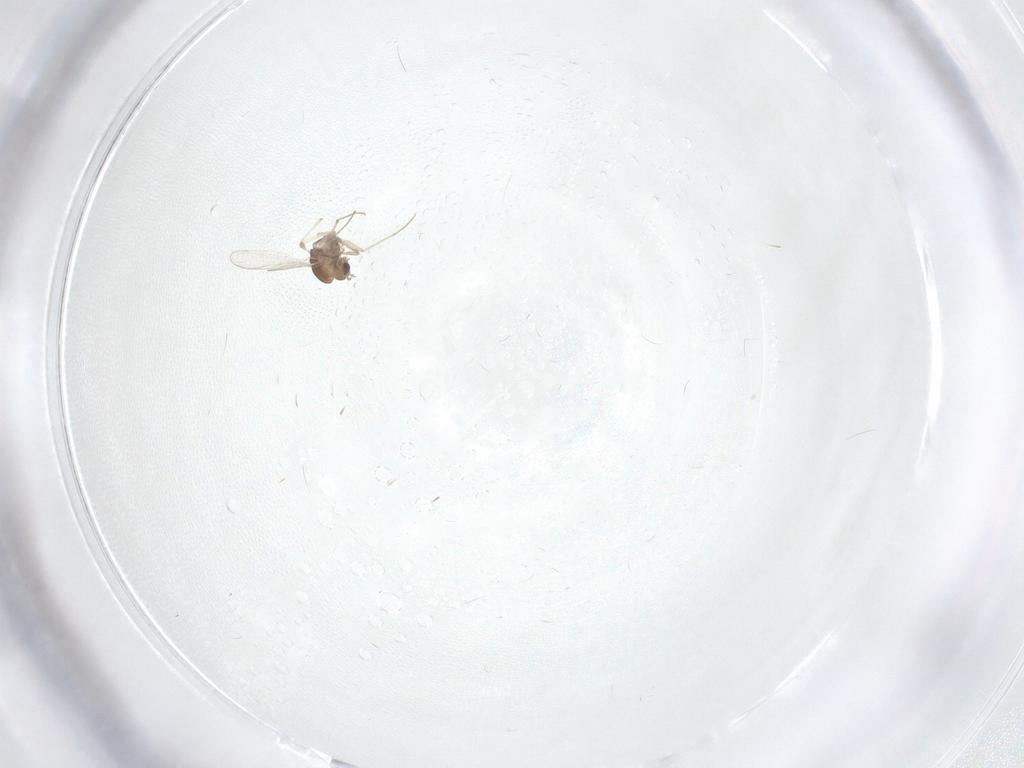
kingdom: Animalia
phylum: Arthropoda
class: Insecta
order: Diptera
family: Chironomidae
